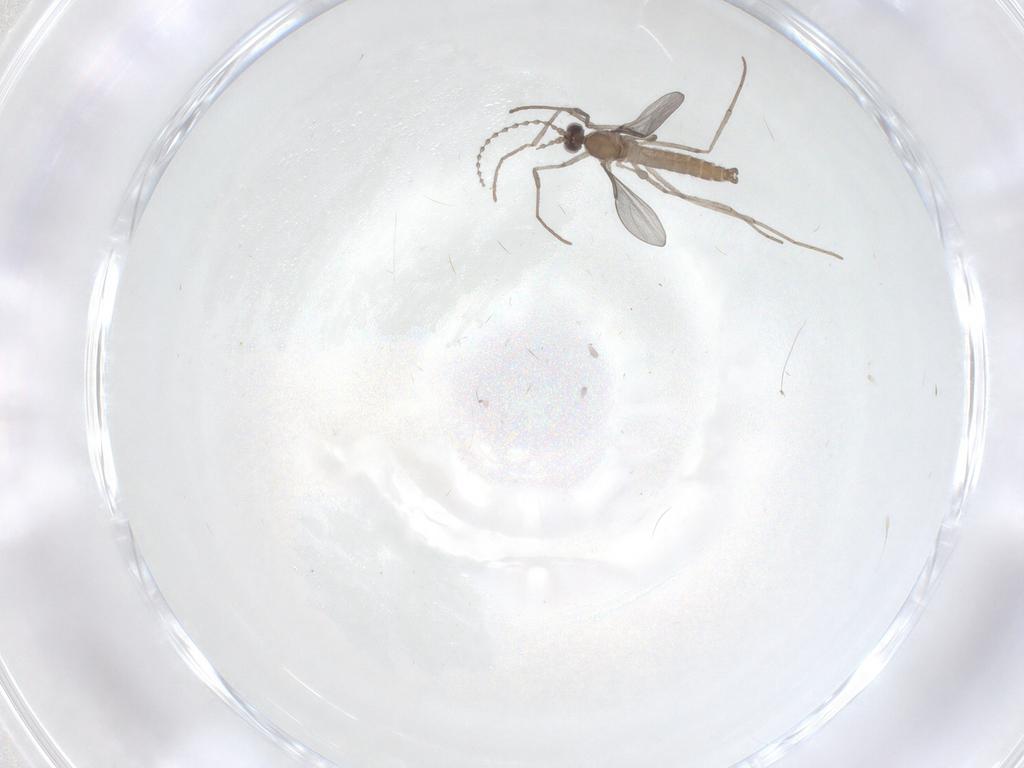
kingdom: Animalia
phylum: Arthropoda
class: Insecta
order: Diptera
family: Cecidomyiidae
